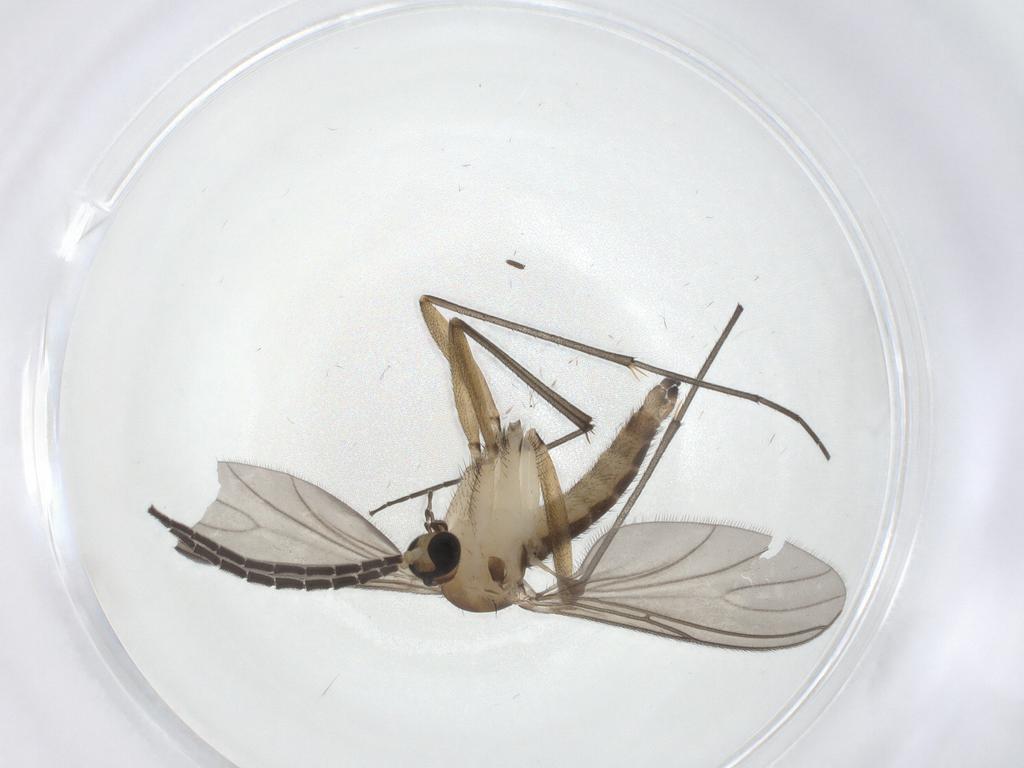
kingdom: Animalia
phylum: Arthropoda
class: Insecta
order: Diptera
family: Sciaridae
